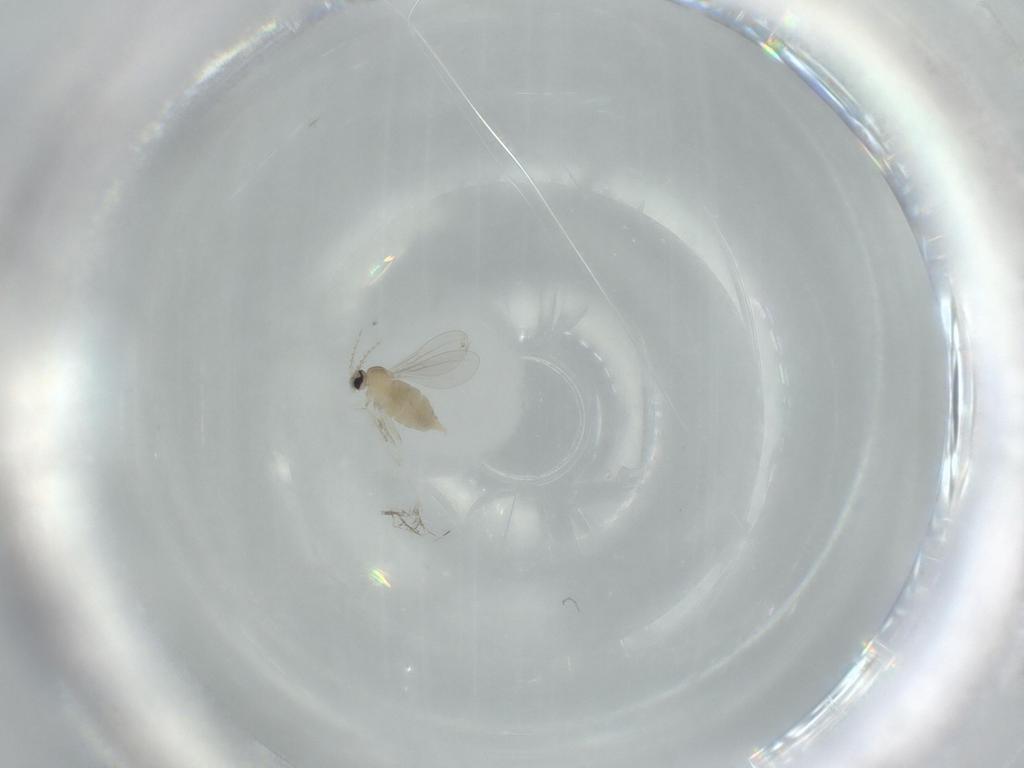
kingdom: Animalia
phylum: Arthropoda
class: Insecta
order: Diptera
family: Cecidomyiidae
